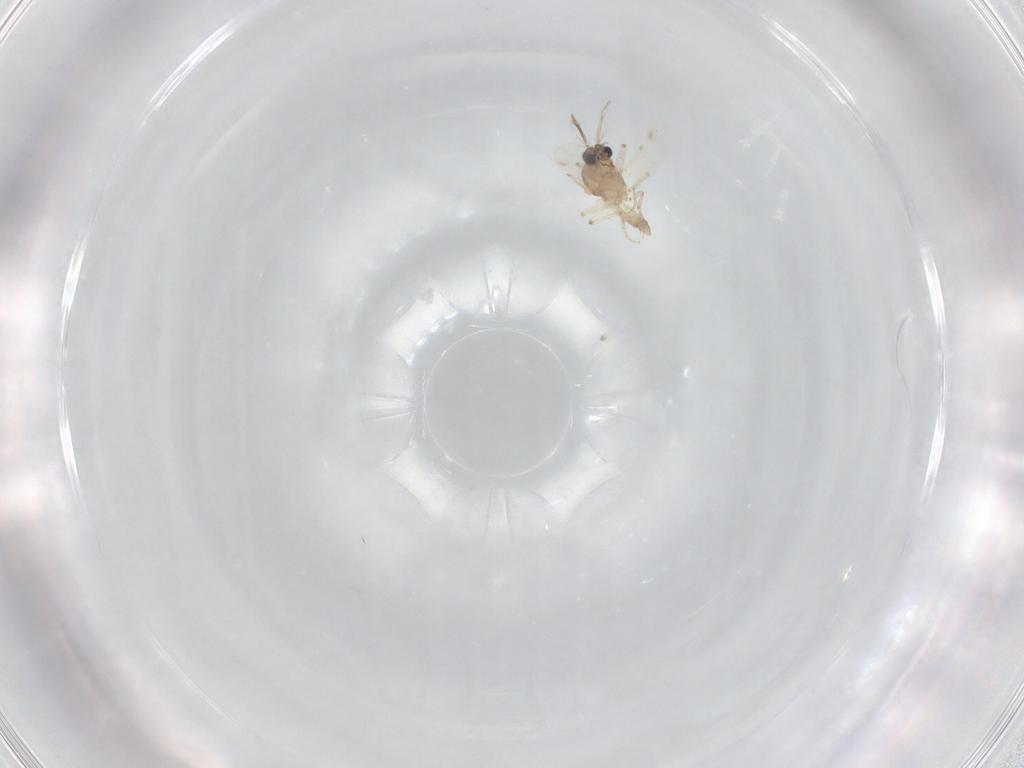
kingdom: Animalia
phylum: Arthropoda
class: Insecta
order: Diptera
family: Ceratopogonidae
